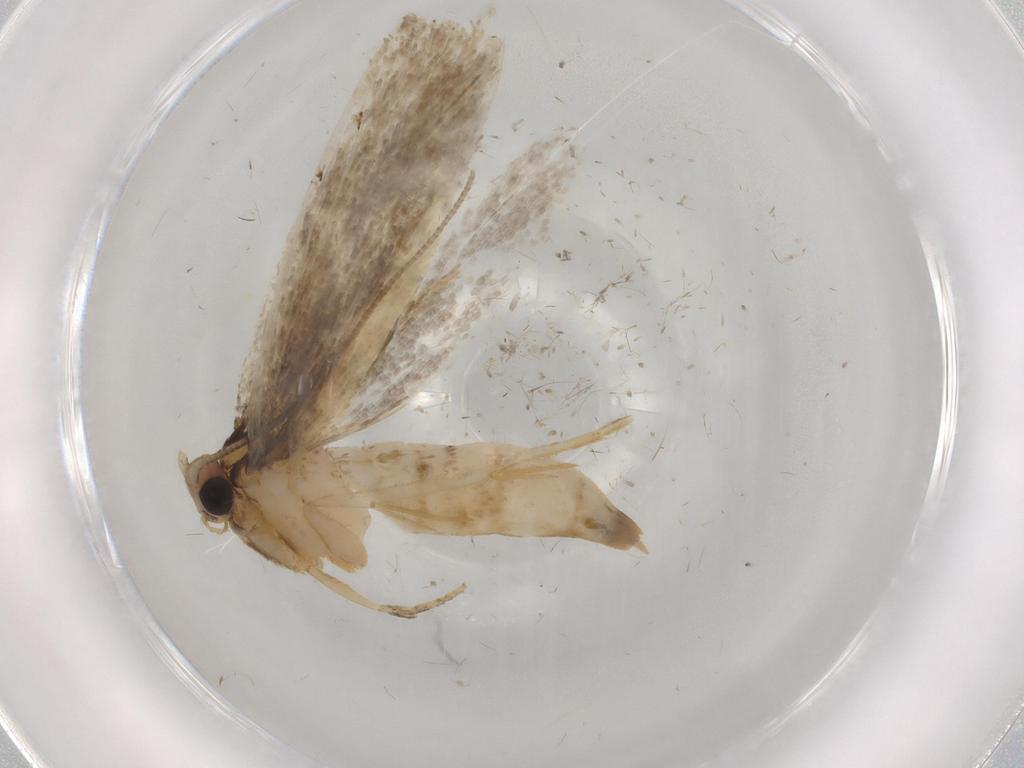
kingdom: Animalia
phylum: Arthropoda
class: Insecta
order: Lepidoptera
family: Tineidae
